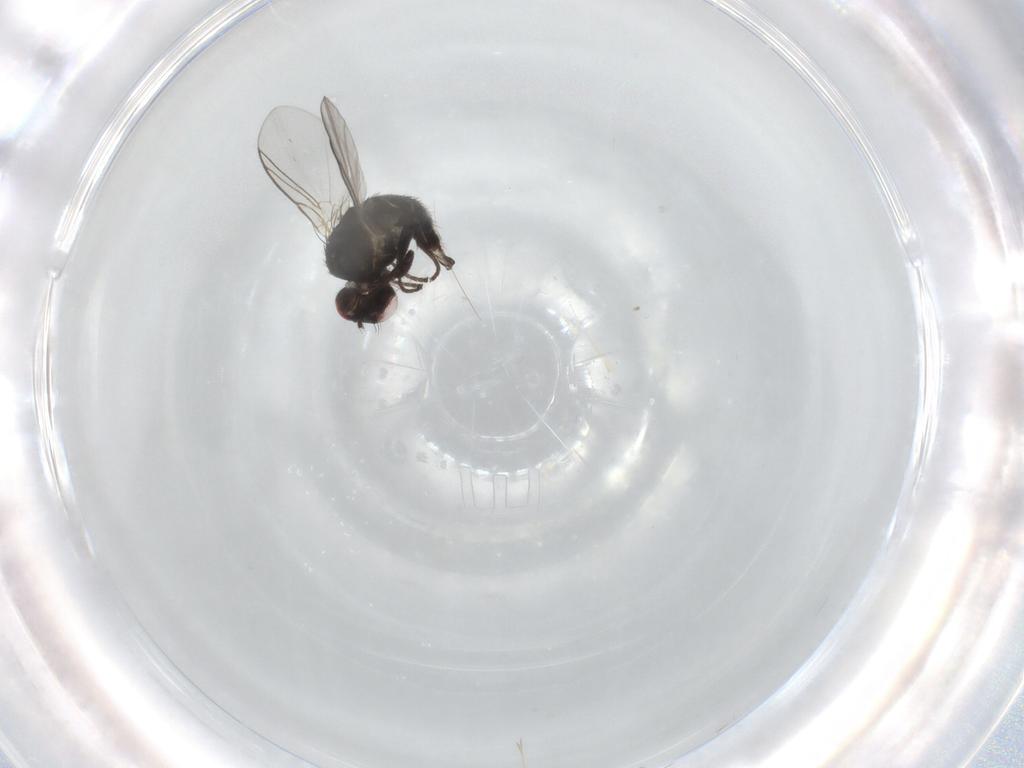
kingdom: Animalia
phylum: Arthropoda
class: Insecta
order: Diptera
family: Agromyzidae
